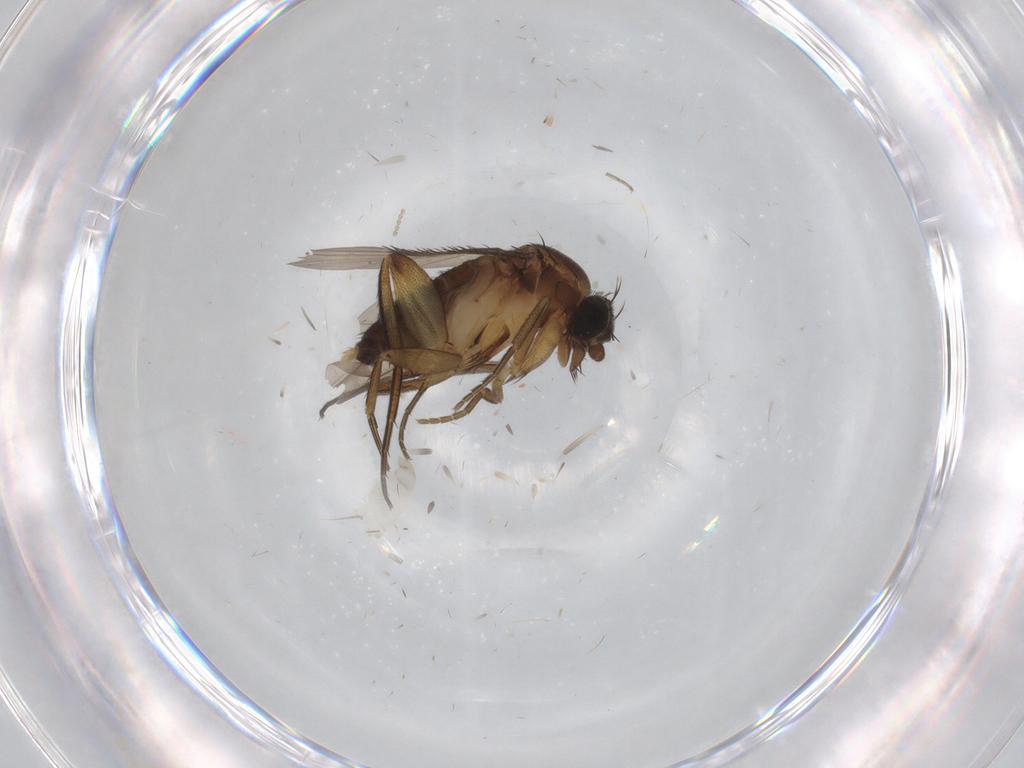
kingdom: Animalia
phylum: Arthropoda
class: Insecta
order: Diptera
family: Phoridae
